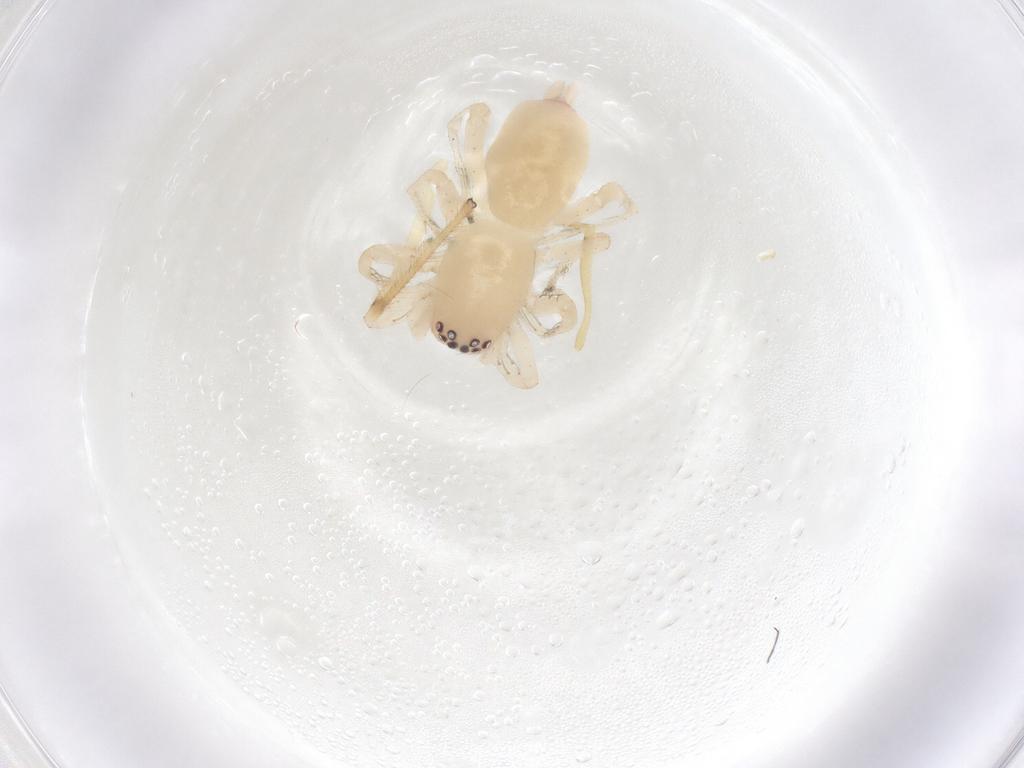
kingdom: Animalia
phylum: Arthropoda
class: Arachnida
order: Araneae
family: Clubionidae
